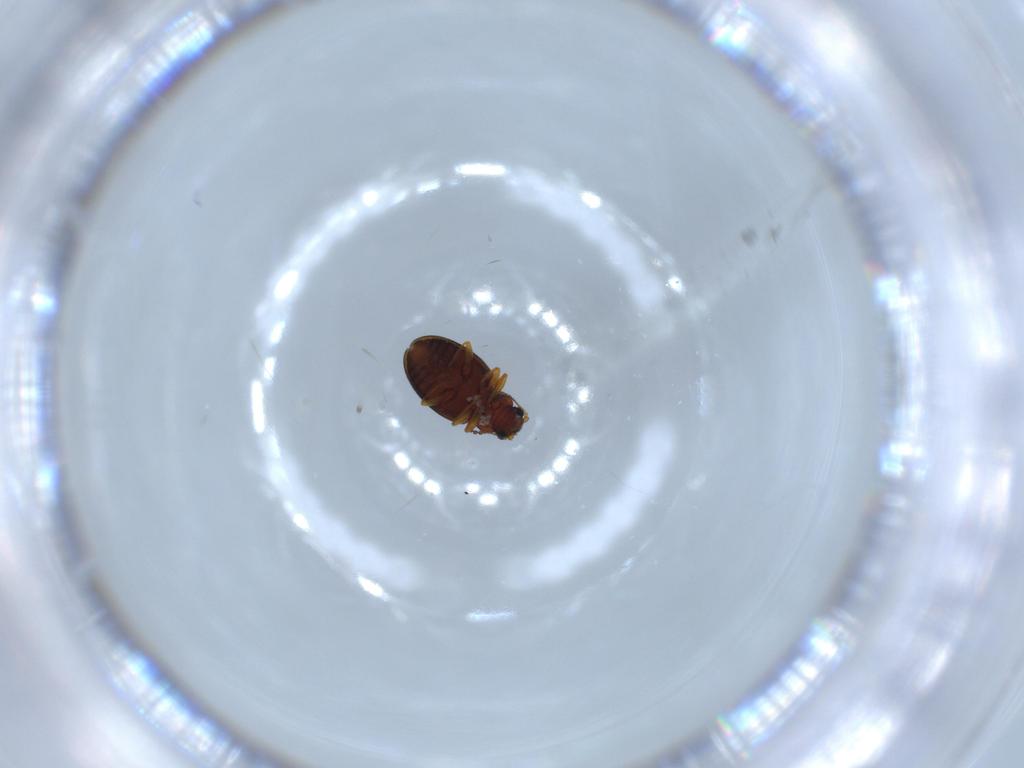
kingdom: Animalia
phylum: Arthropoda
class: Insecta
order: Coleoptera
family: Latridiidae
